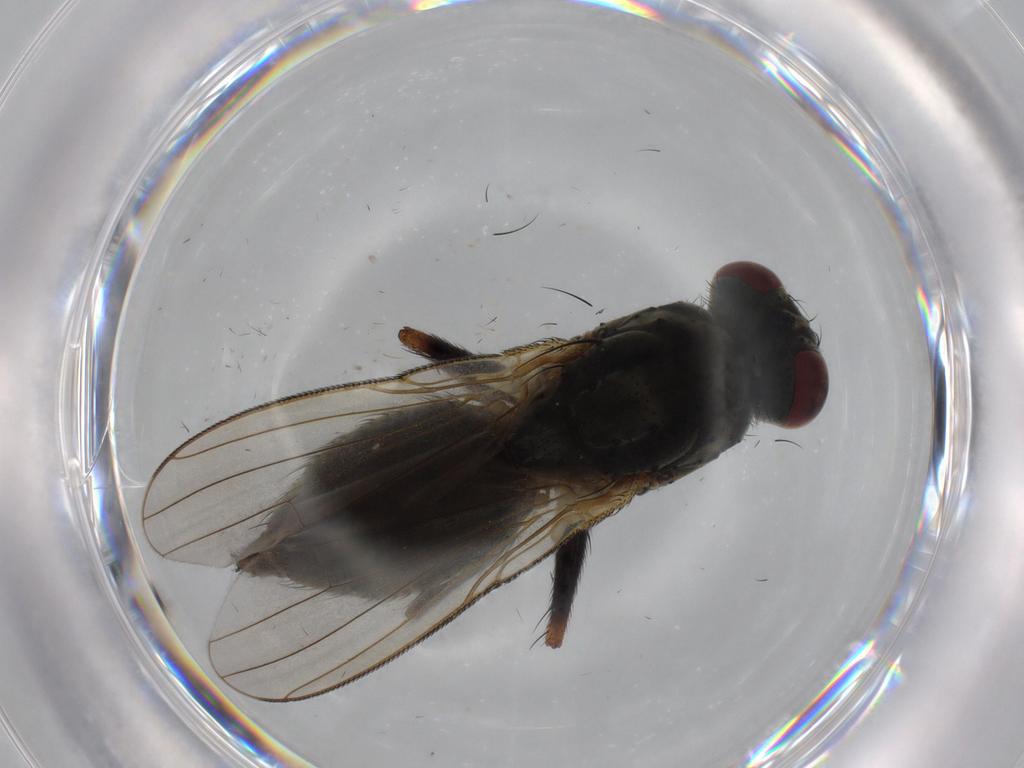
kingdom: Animalia
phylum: Arthropoda
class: Insecta
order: Diptera
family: Muscidae
